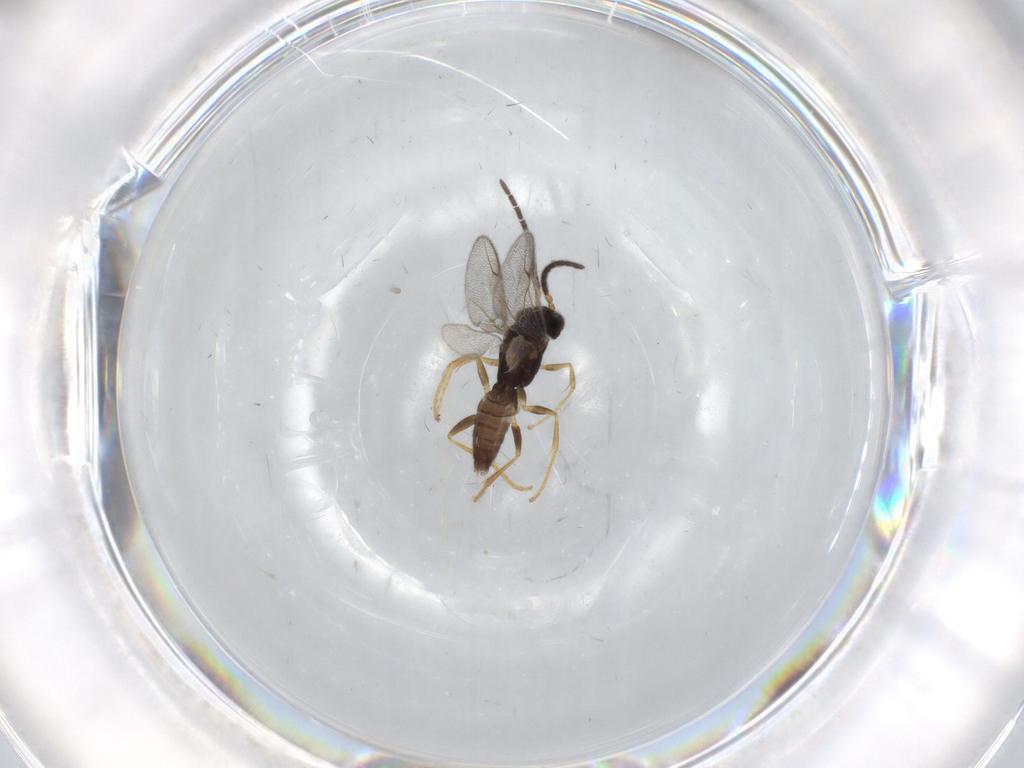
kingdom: Animalia
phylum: Arthropoda
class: Insecta
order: Hymenoptera
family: Dryinidae
